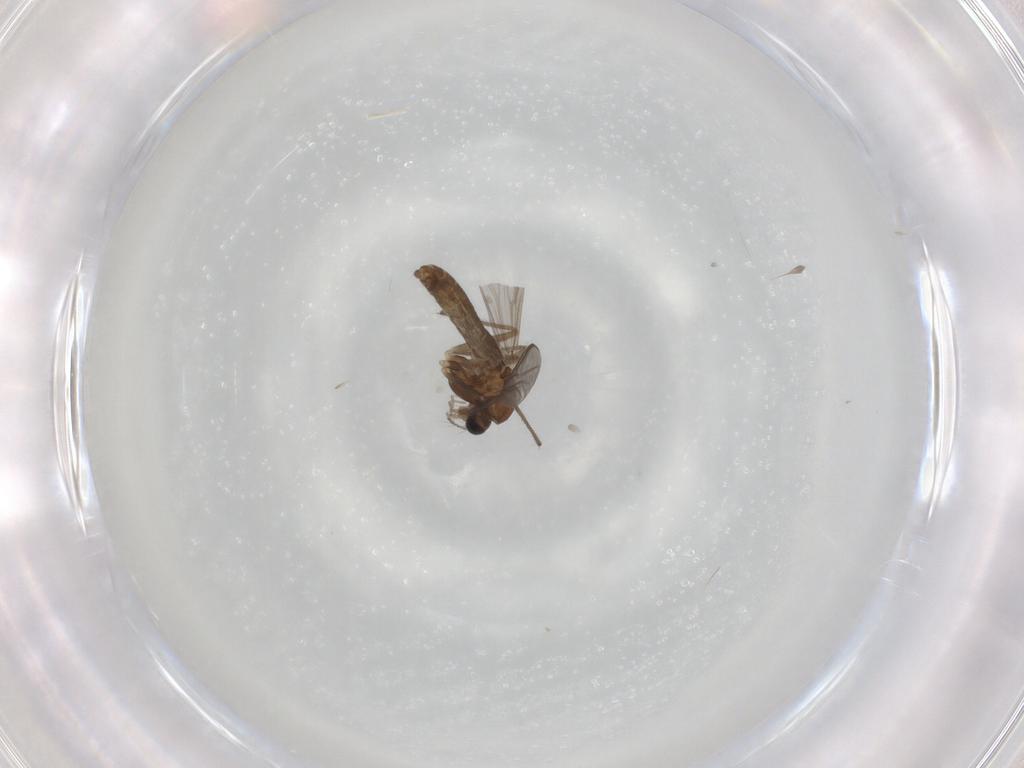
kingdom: Animalia
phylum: Arthropoda
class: Insecta
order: Diptera
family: Chironomidae
